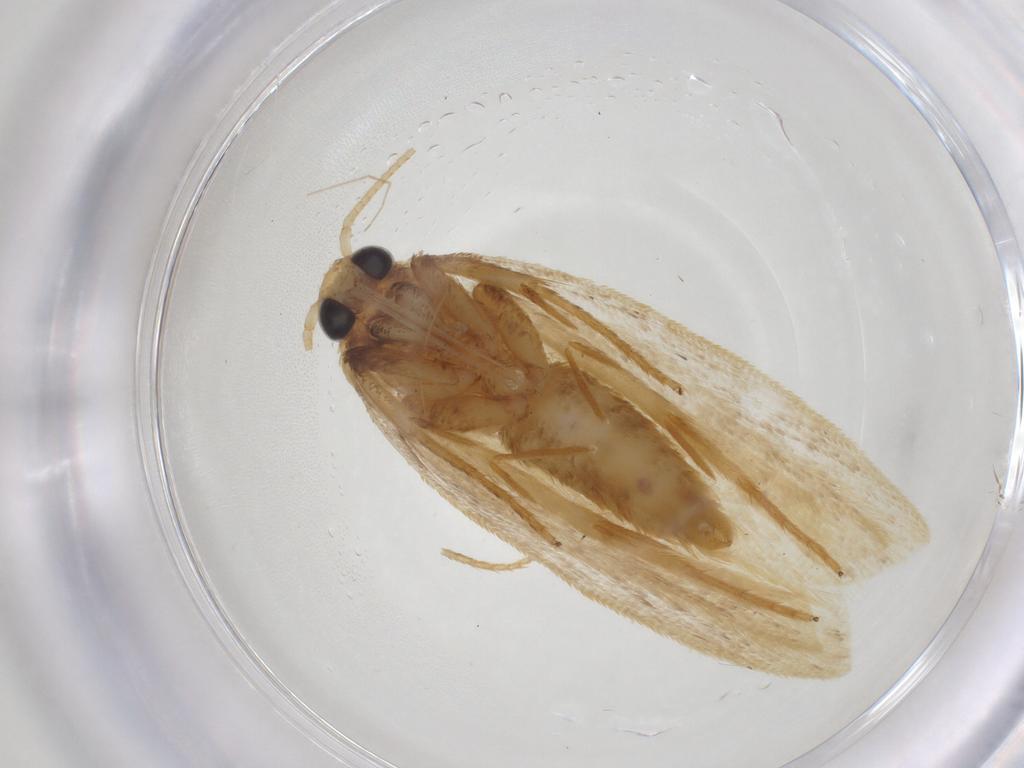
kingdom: Animalia
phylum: Arthropoda
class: Insecta
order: Lepidoptera
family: Depressariidae
